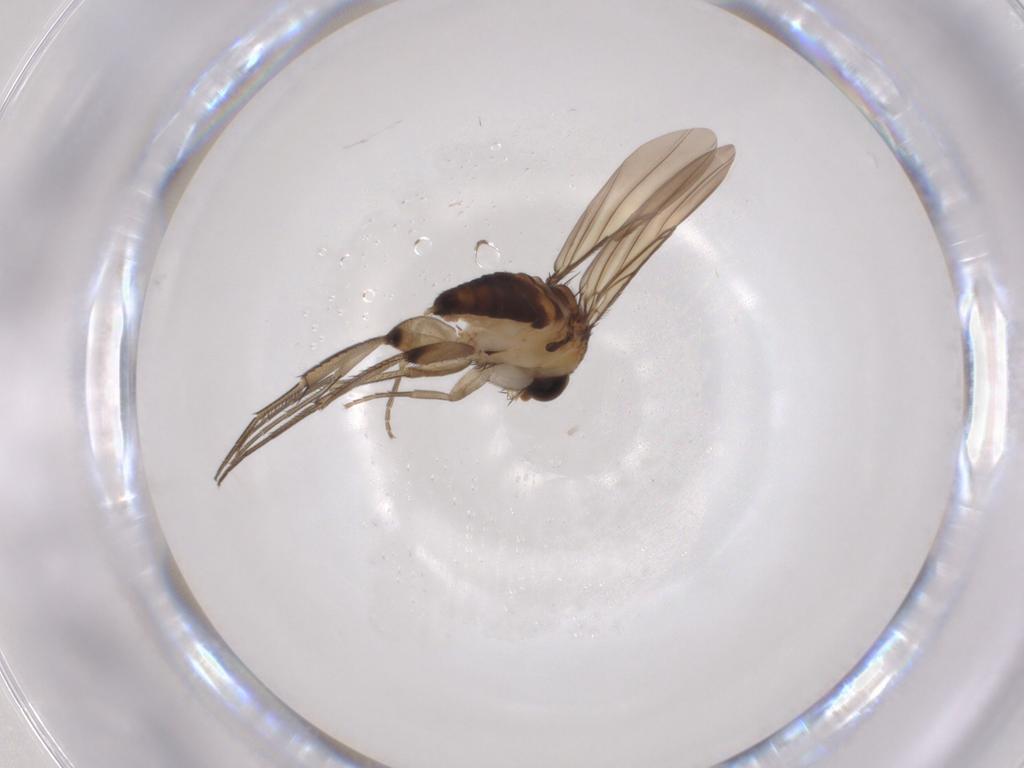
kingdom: Animalia
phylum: Arthropoda
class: Insecta
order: Diptera
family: Phoridae
